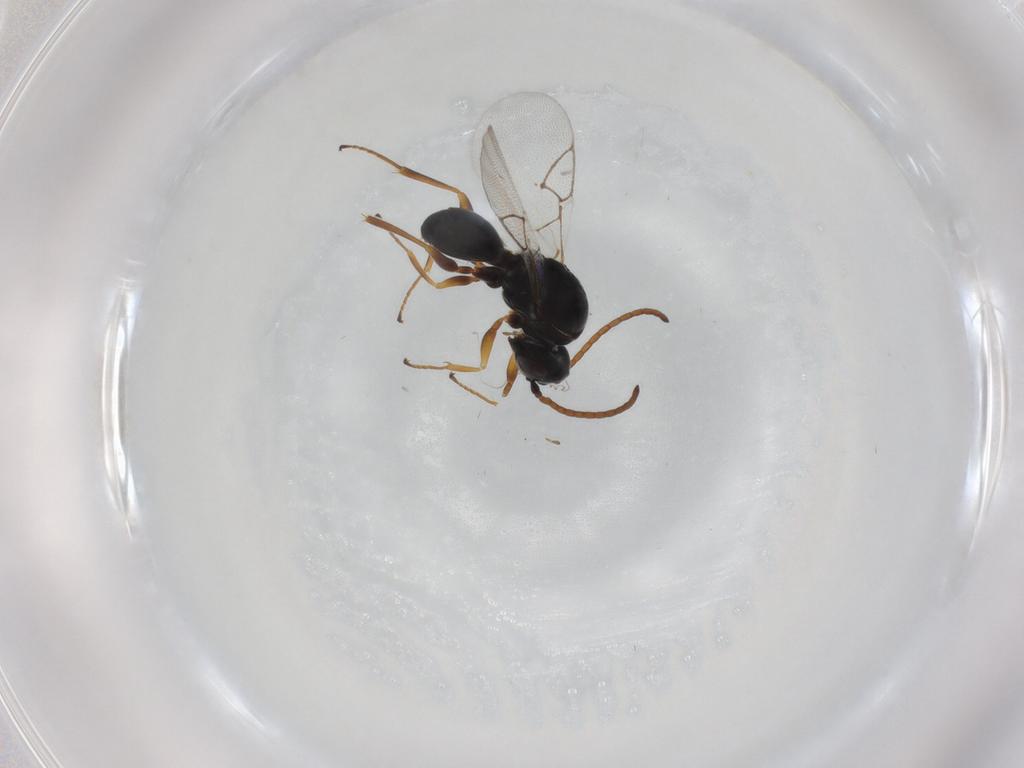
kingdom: Animalia
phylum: Arthropoda
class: Insecta
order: Hymenoptera
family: Figitidae
